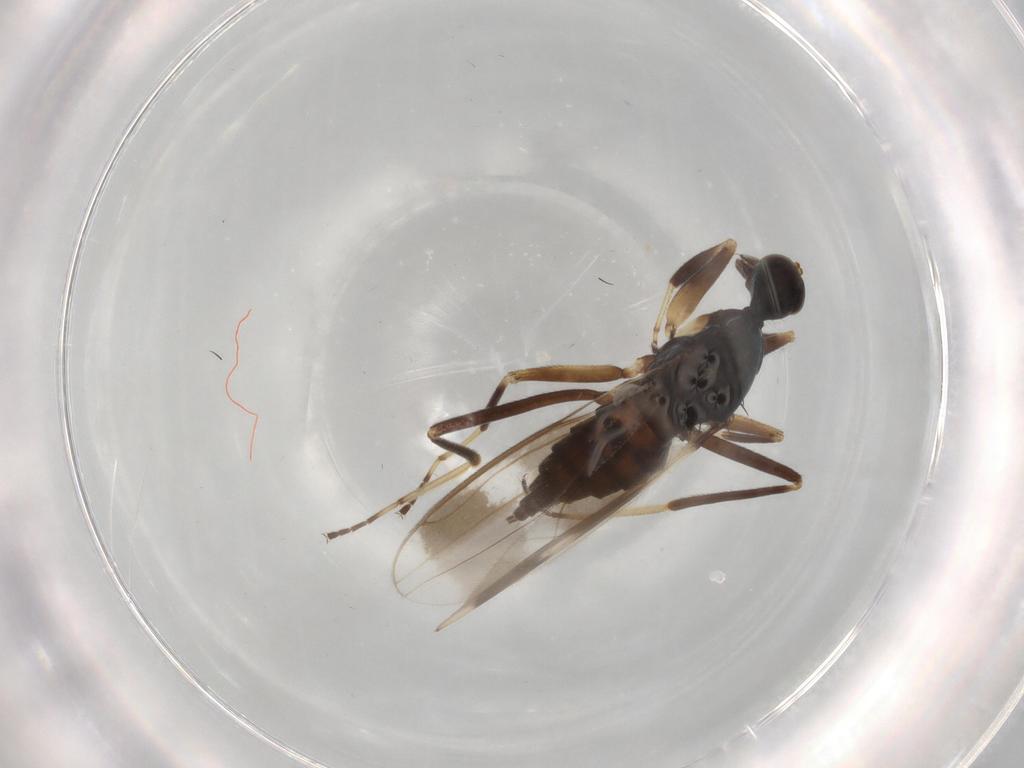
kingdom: Animalia
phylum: Arthropoda
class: Insecta
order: Diptera
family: Hybotidae
